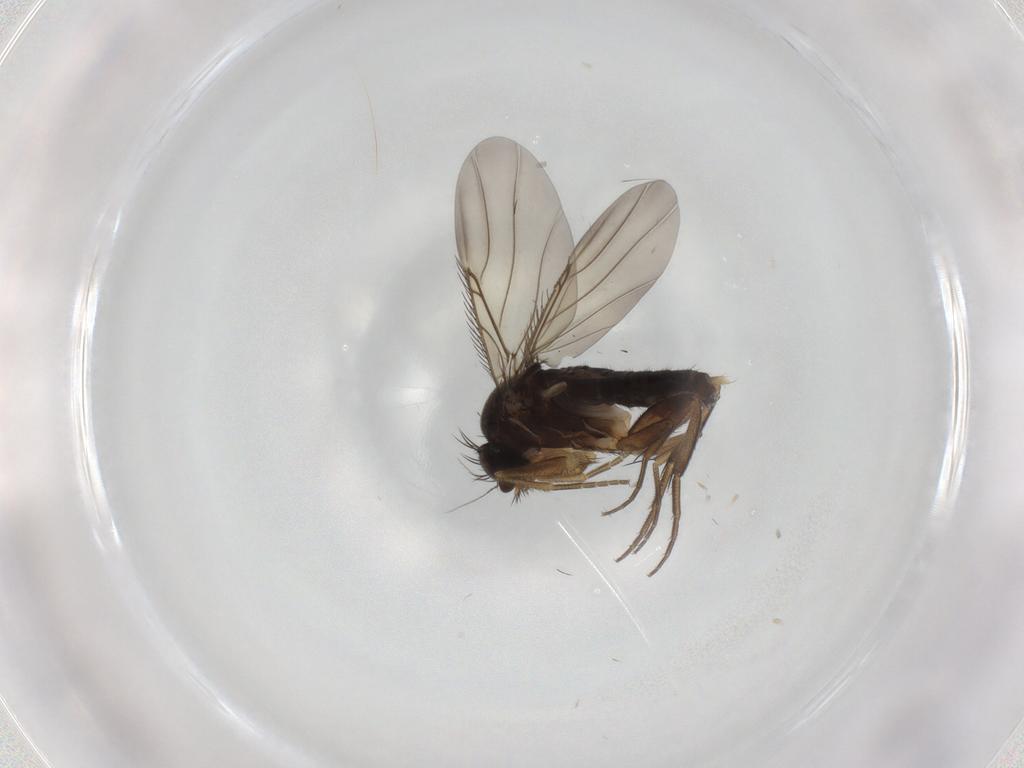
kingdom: Animalia
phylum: Arthropoda
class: Insecta
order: Diptera
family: Phoridae
